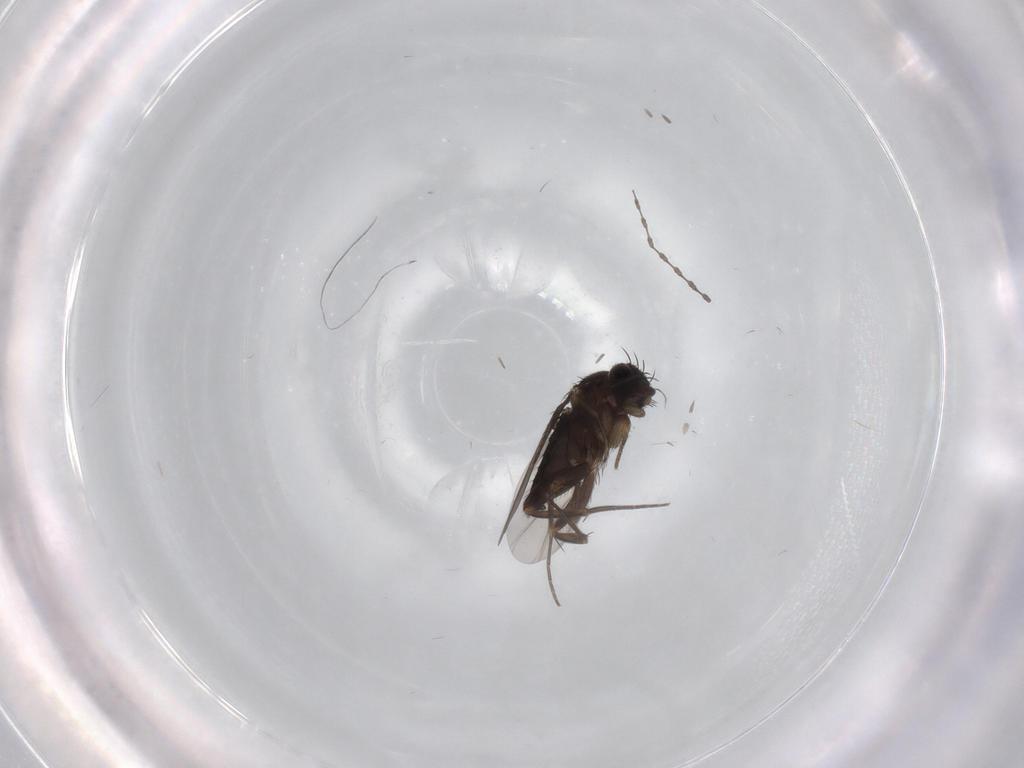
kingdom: Animalia
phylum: Arthropoda
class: Insecta
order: Diptera
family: Phoridae
